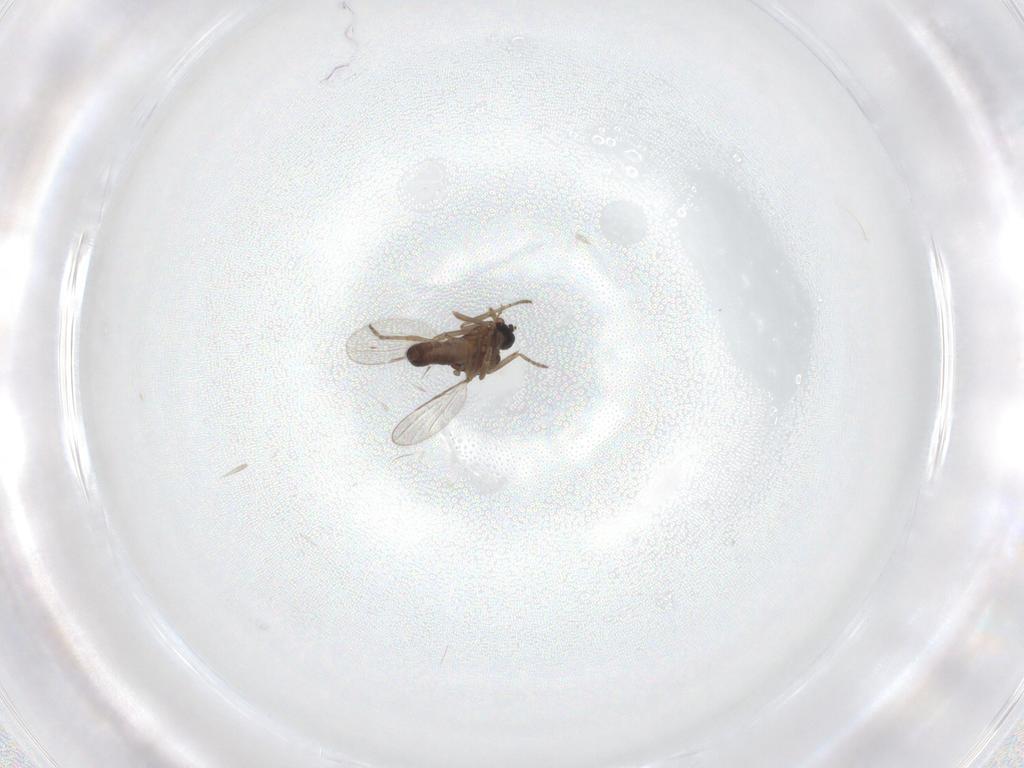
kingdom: Animalia
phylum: Arthropoda
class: Insecta
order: Diptera
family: Ceratopogonidae
